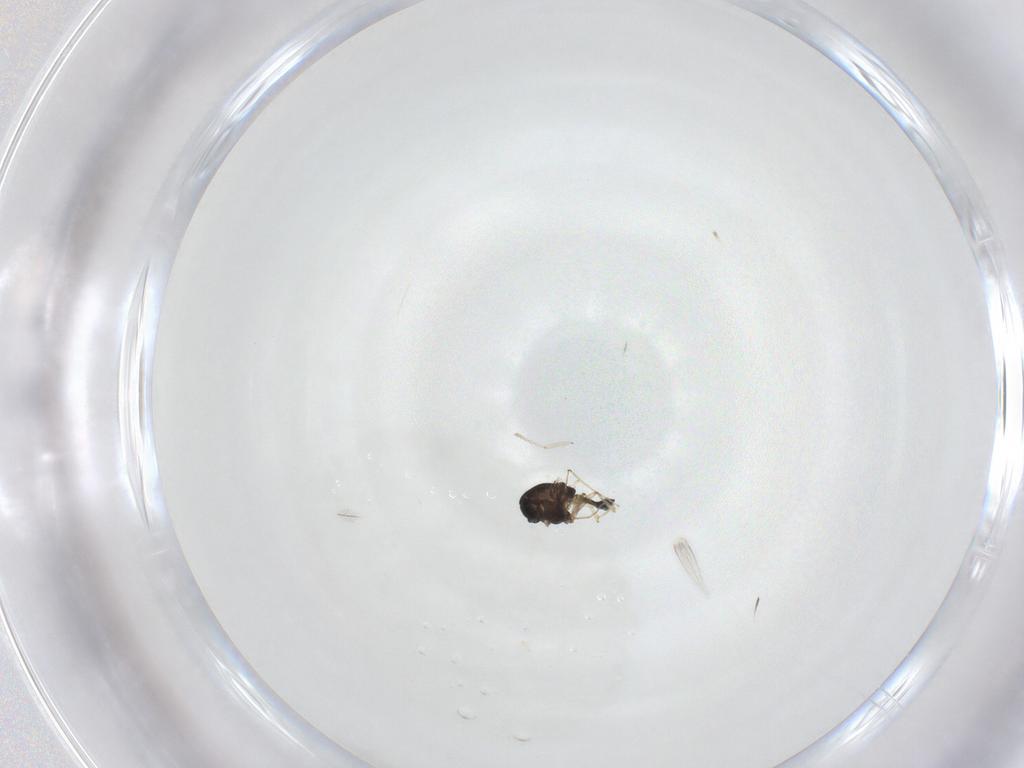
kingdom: Animalia
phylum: Arthropoda
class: Insecta
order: Diptera
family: Chironomidae
